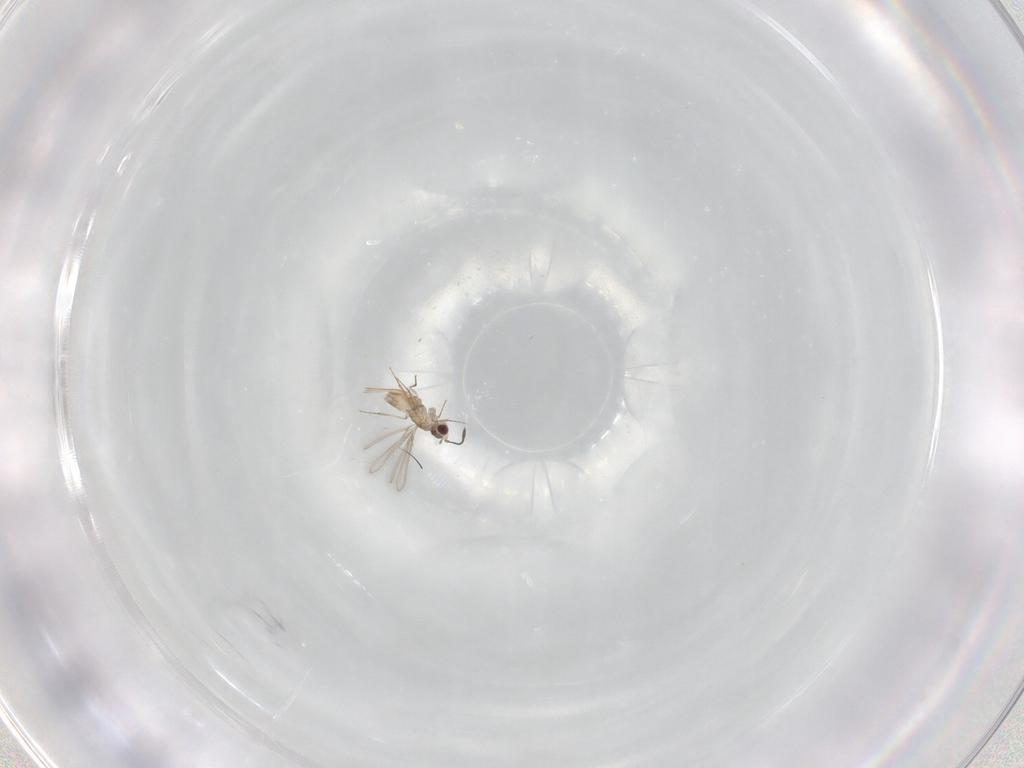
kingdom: Animalia
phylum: Arthropoda
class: Insecta
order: Hymenoptera
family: Mymaridae
